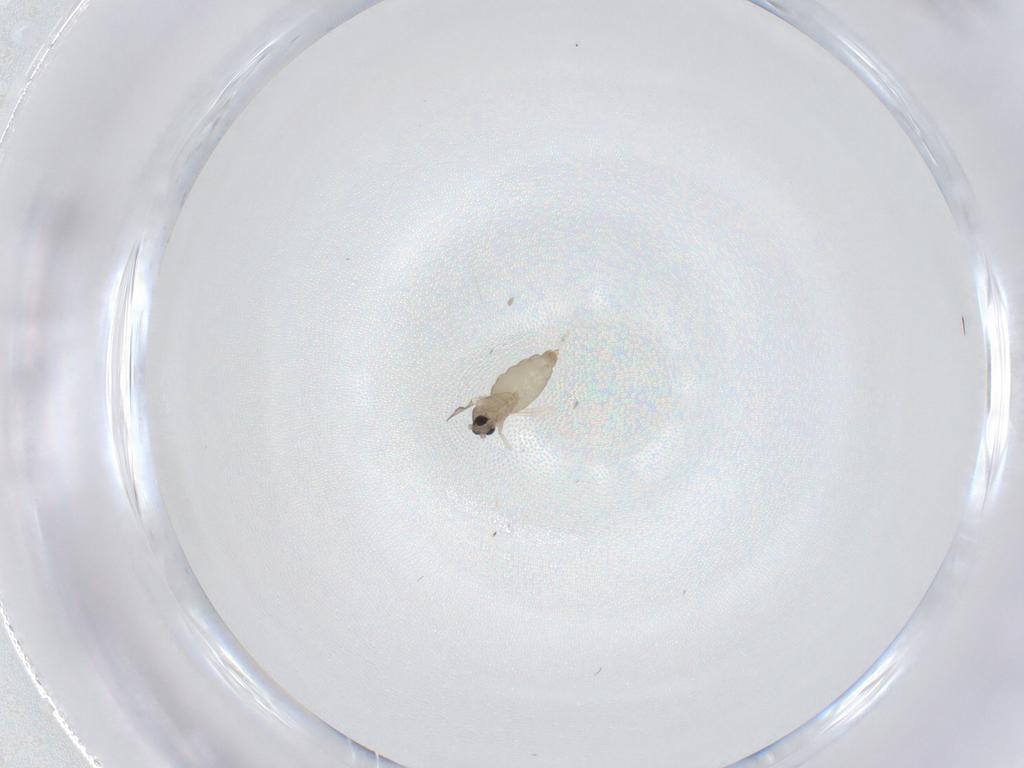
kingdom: Animalia
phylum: Arthropoda
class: Insecta
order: Diptera
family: Cecidomyiidae
